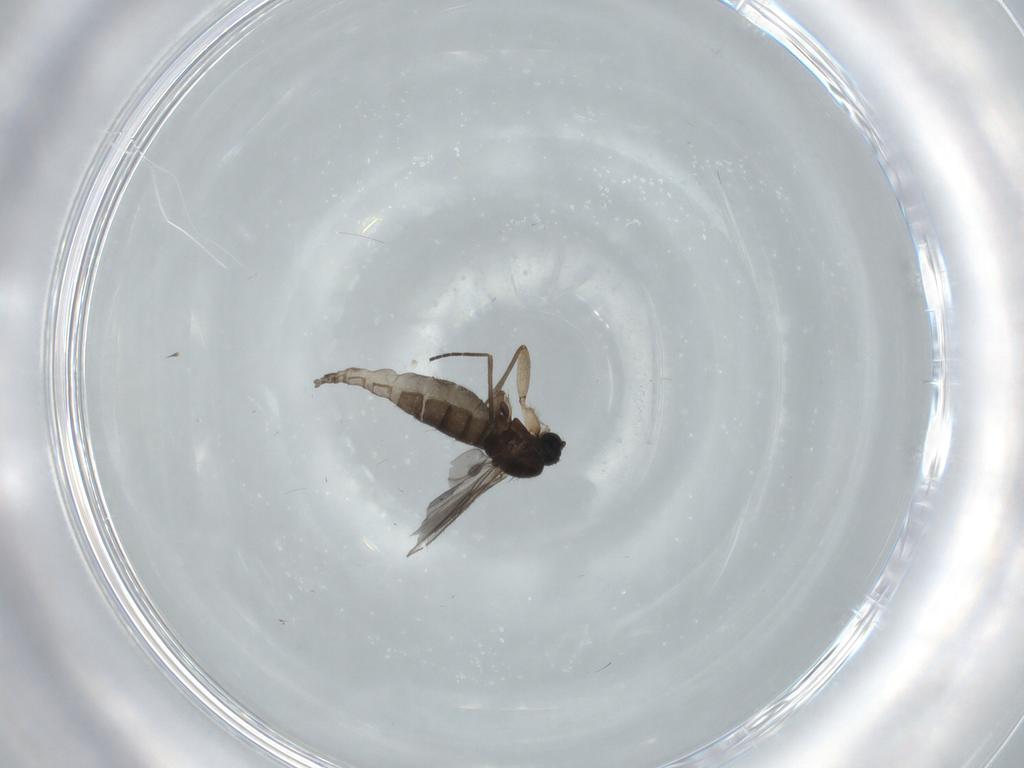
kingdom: Animalia
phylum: Arthropoda
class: Insecta
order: Diptera
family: Sciaridae
